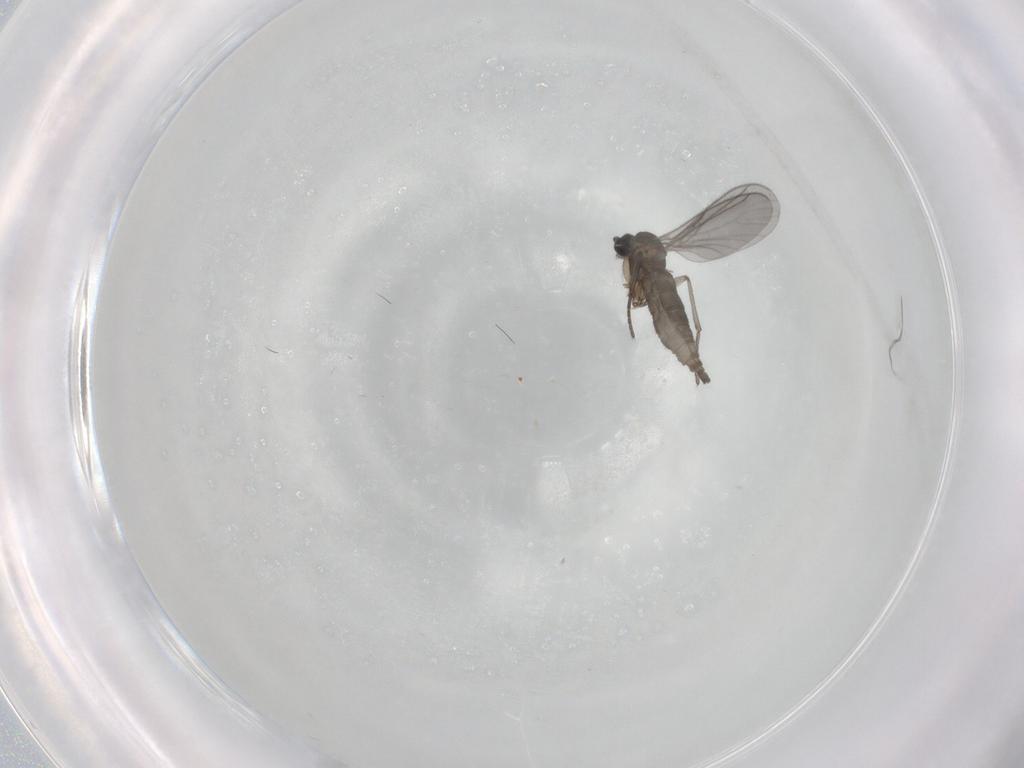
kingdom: Animalia
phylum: Arthropoda
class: Insecta
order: Diptera
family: Sciaridae
